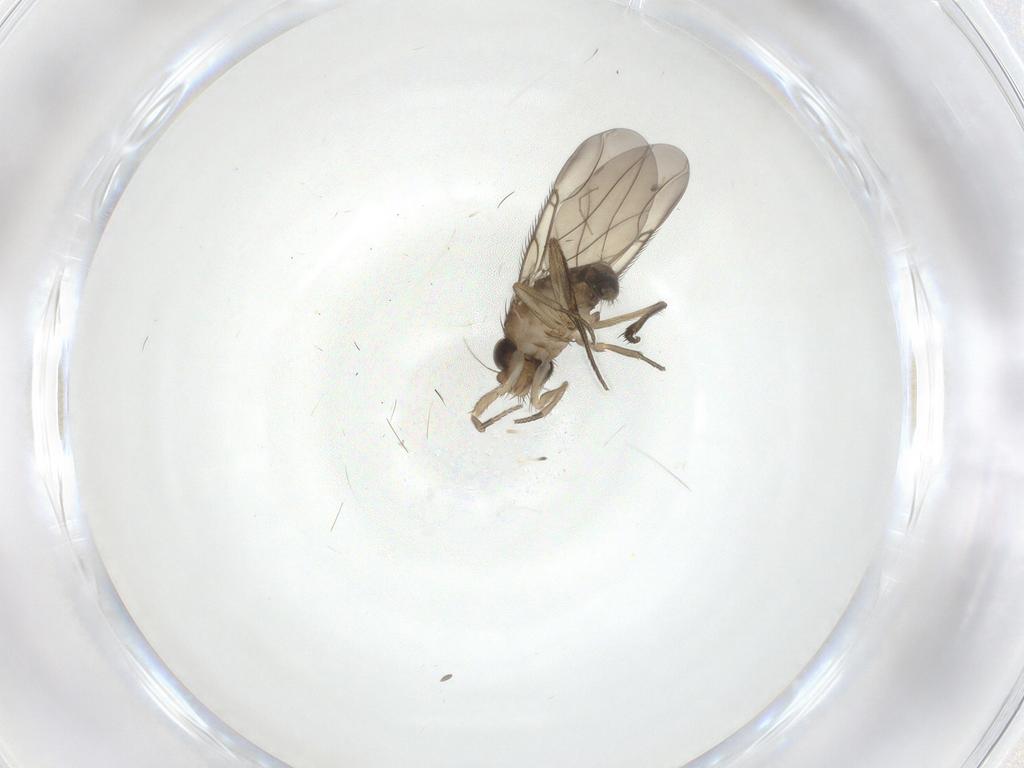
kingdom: Animalia
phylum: Arthropoda
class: Insecta
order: Diptera
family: Phoridae
